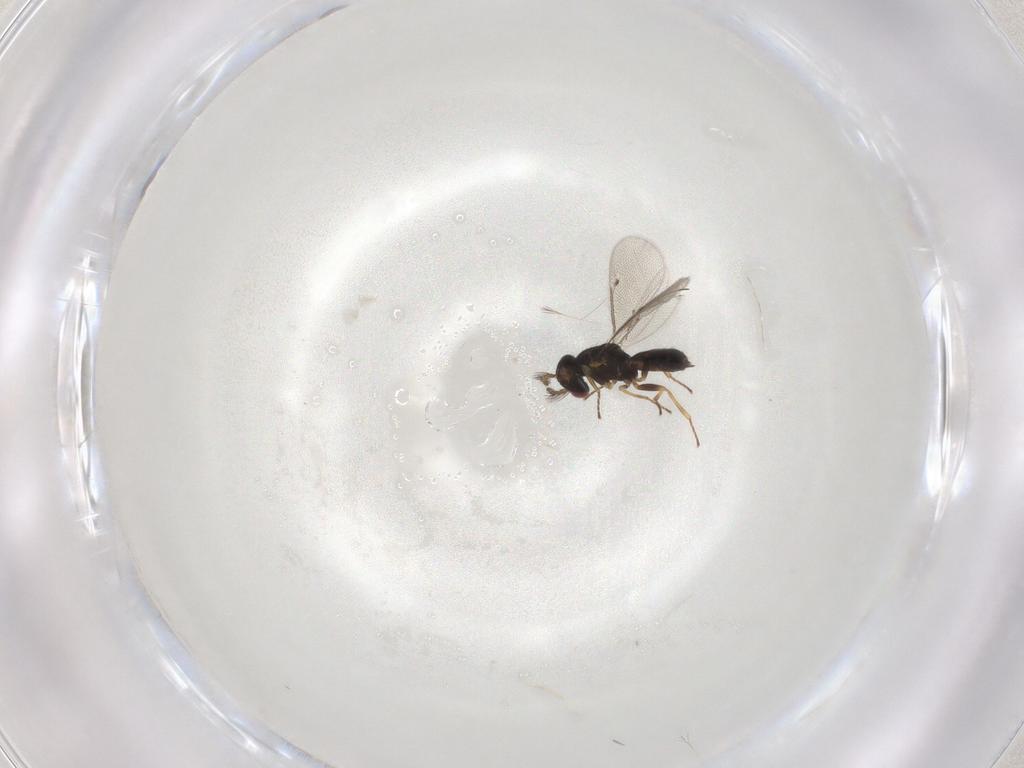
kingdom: Animalia
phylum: Arthropoda
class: Insecta
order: Hymenoptera
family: Eulophidae
